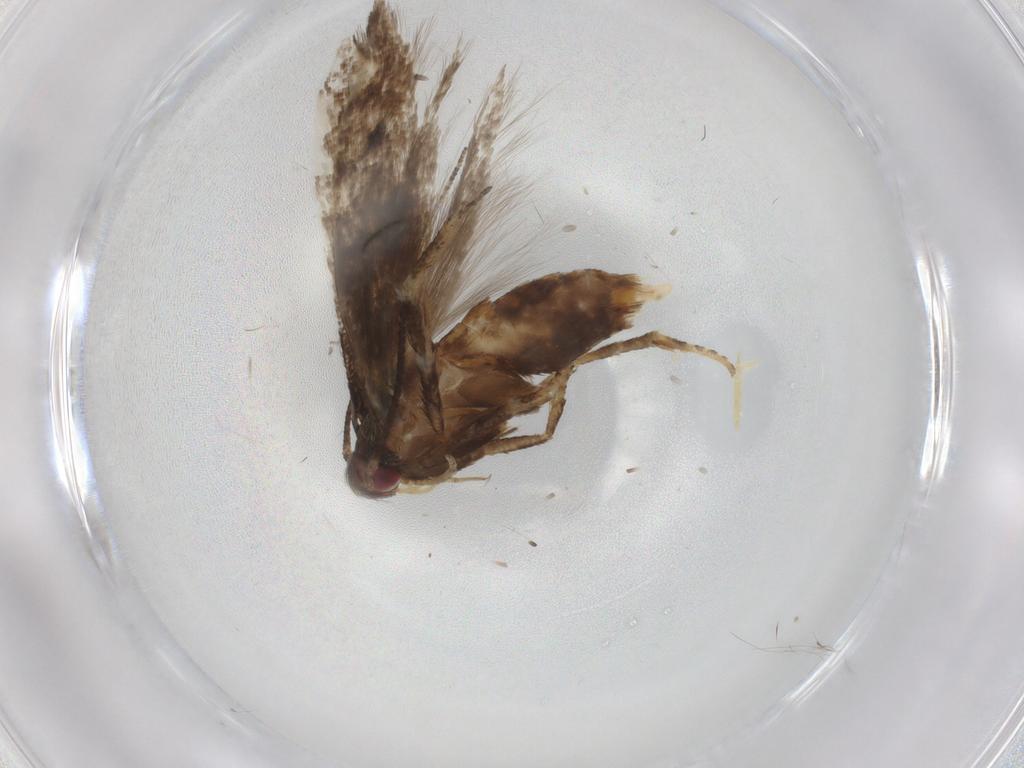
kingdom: Animalia
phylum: Arthropoda
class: Insecta
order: Lepidoptera
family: Momphidae
